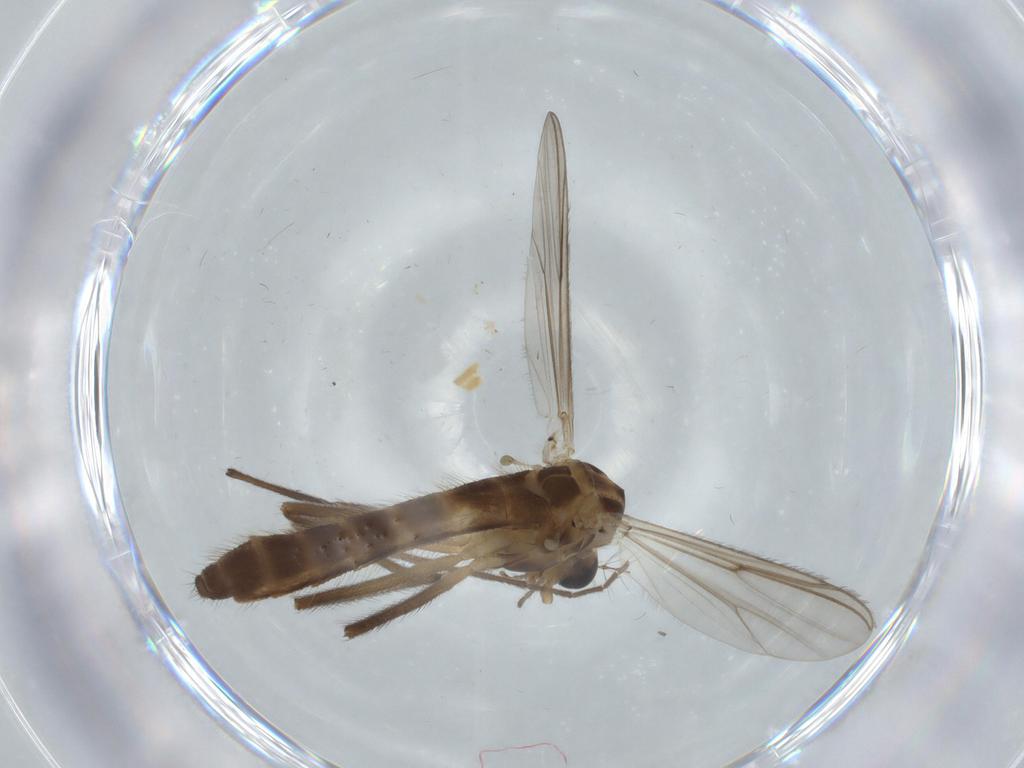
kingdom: Animalia
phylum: Arthropoda
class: Insecta
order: Diptera
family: Chironomidae
